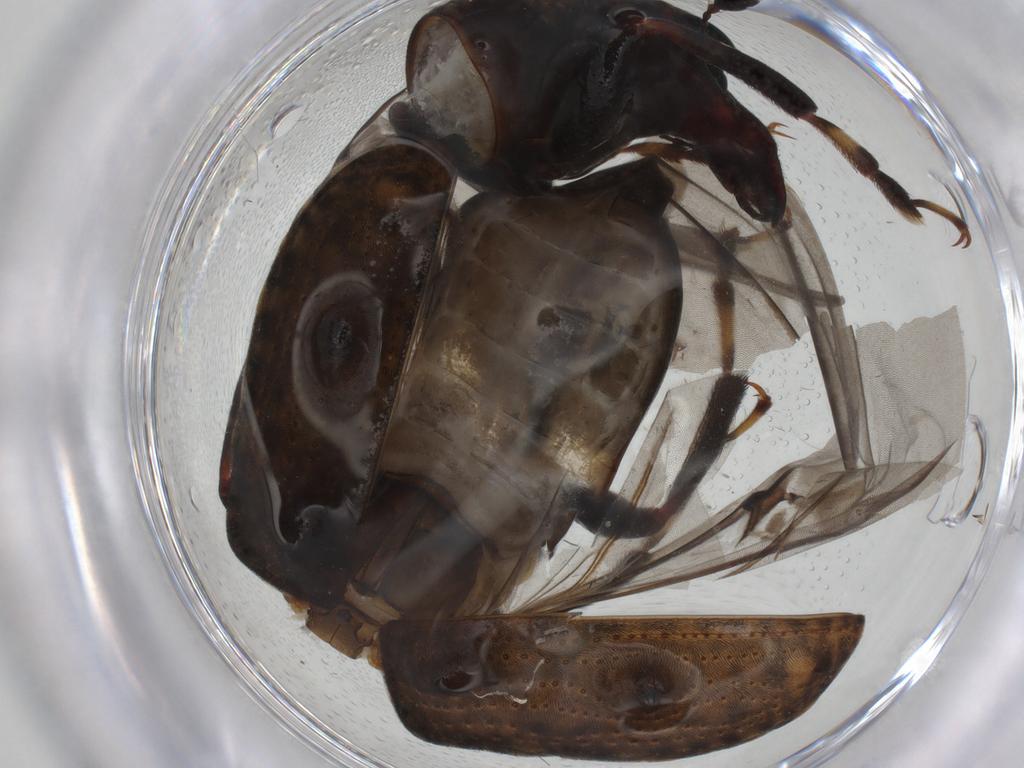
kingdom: Animalia
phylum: Arthropoda
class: Insecta
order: Coleoptera
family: Anthribidae
